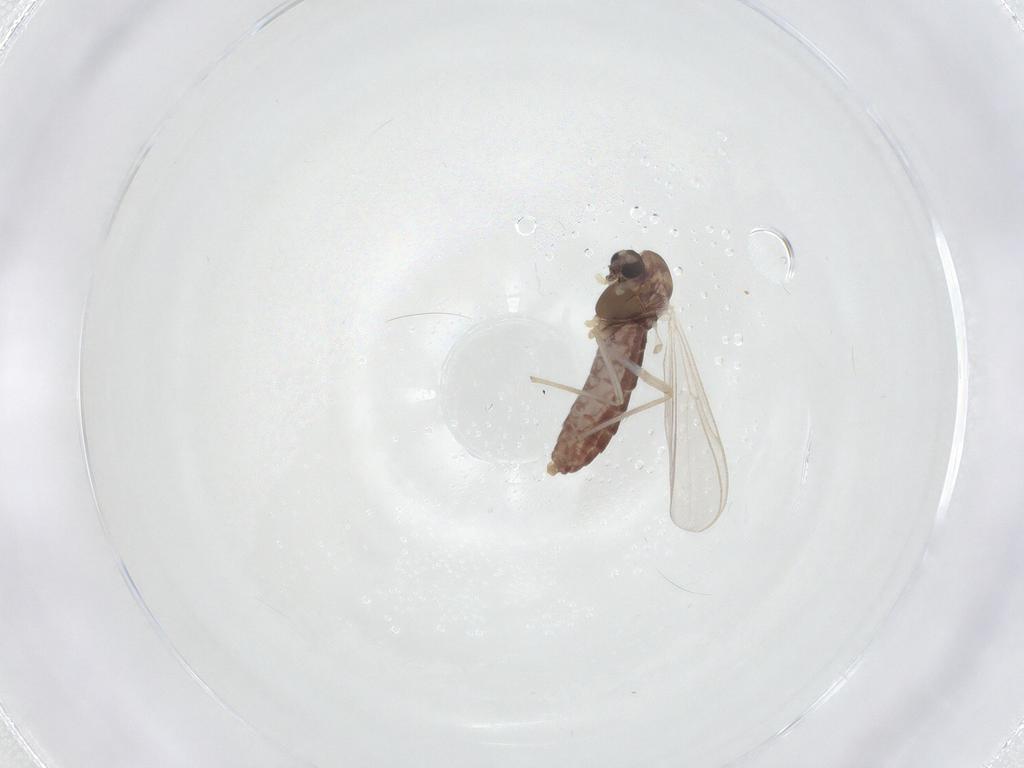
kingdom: Animalia
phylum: Arthropoda
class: Insecta
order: Diptera
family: Chironomidae
